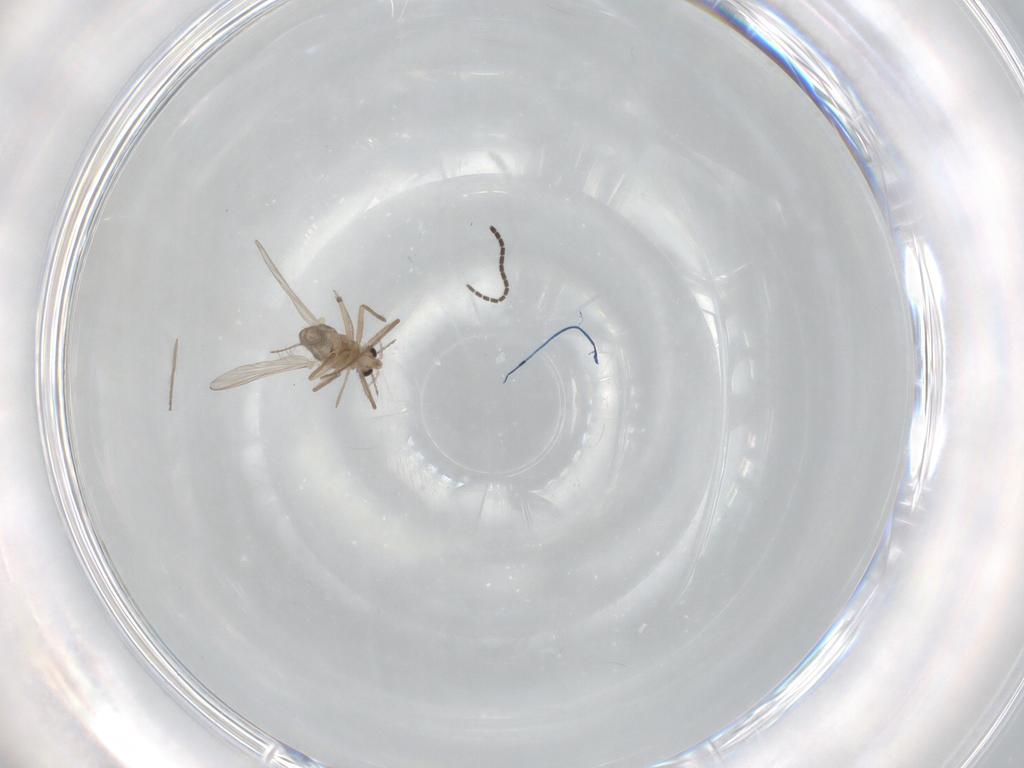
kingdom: Animalia
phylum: Arthropoda
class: Insecta
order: Diptera
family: Chironomidae
